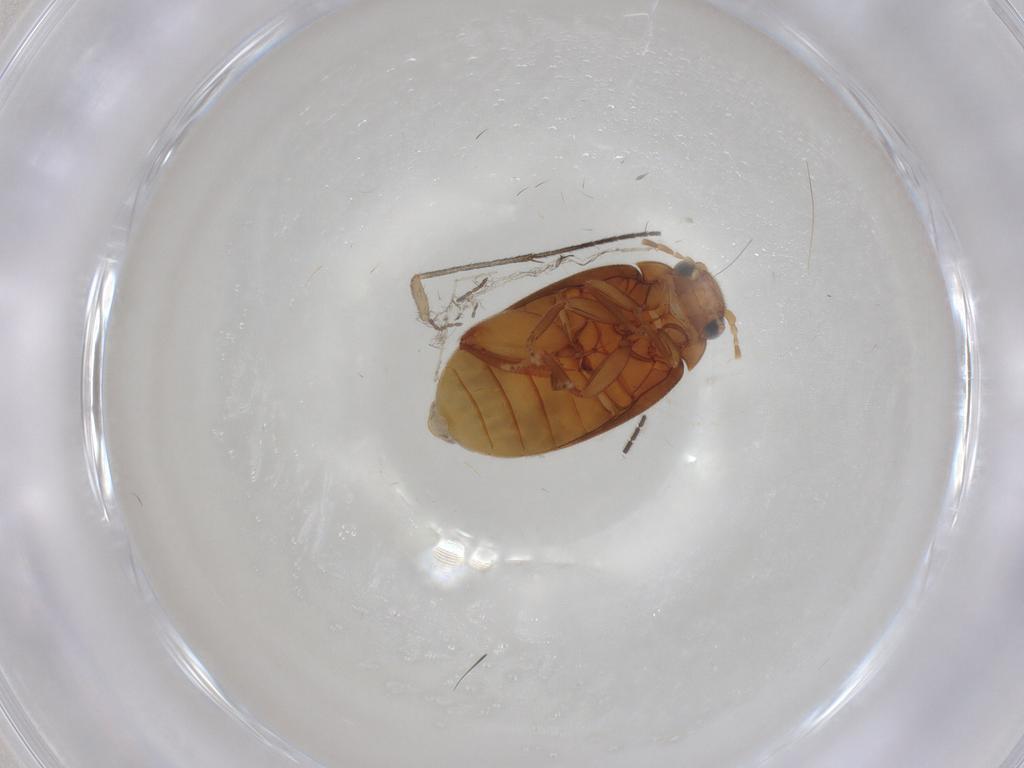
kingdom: Animalia
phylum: Arthropoda
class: Insecta
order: Coleoptera
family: Scirtidae
